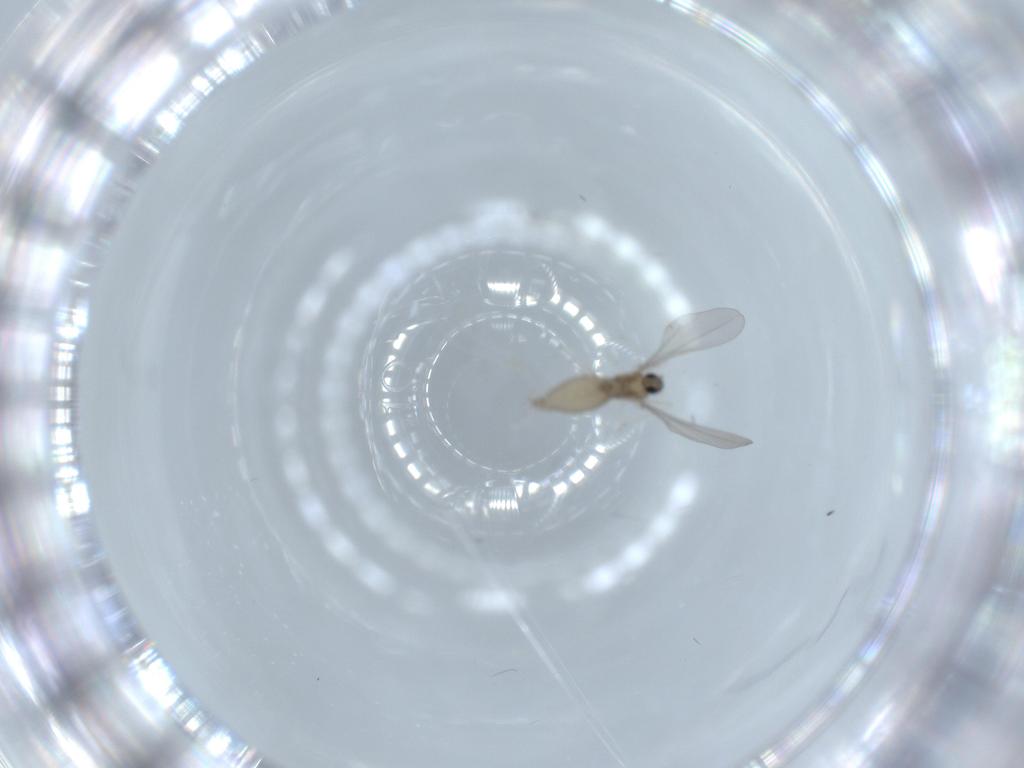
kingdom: Animalia
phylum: Arthropoda
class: Insecta
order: Diptera
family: Cecidomyiidae
